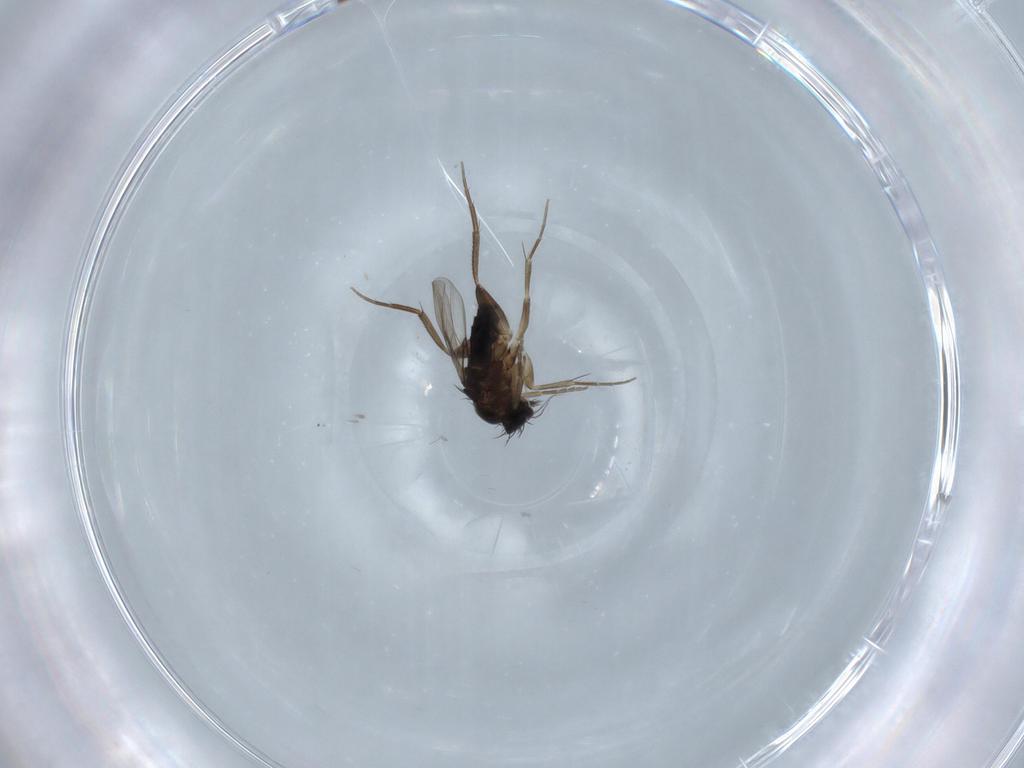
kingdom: Animalia
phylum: Arthropoda
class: Insecta
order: Diptera
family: Phoridae
